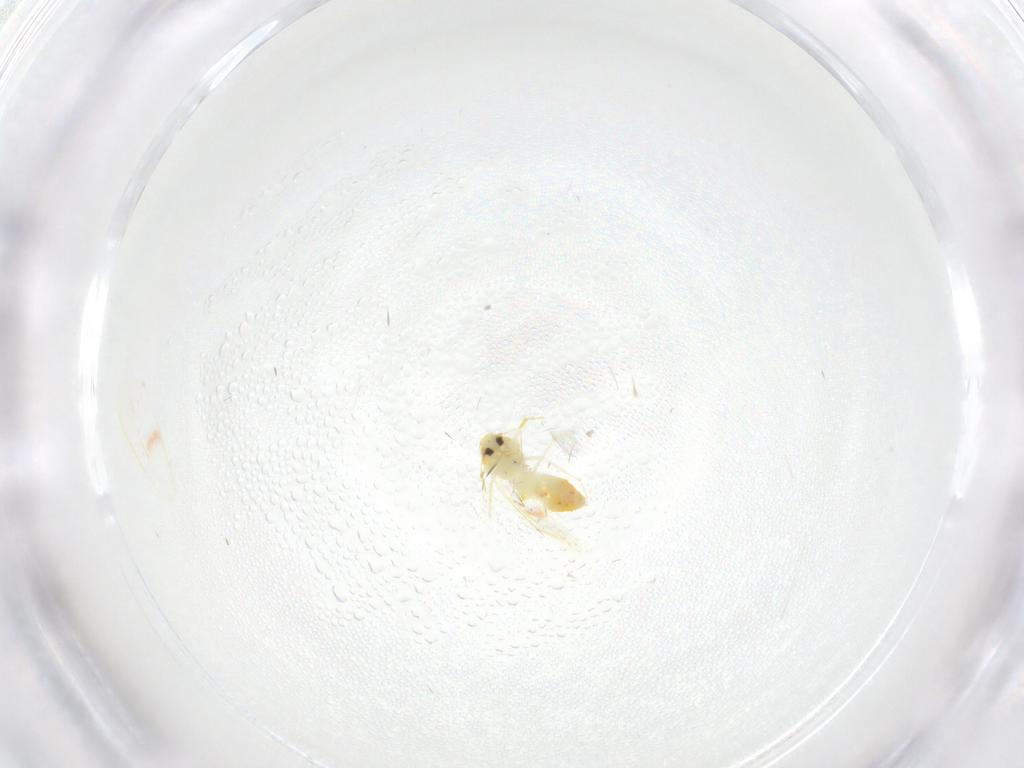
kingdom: Animalia
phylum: Arthropoda
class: Insecta
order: Hemiptera
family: Aleyrodidae
